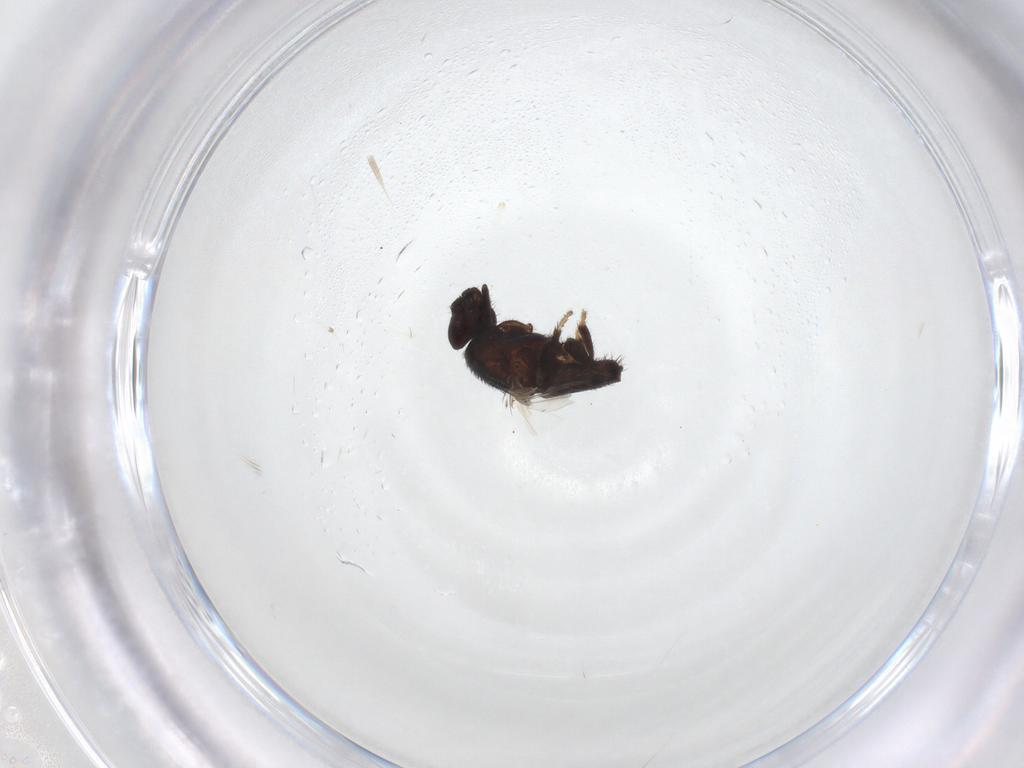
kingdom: Animalia
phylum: Arthropoda
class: Insecta
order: Diptera
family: Milichiidae
